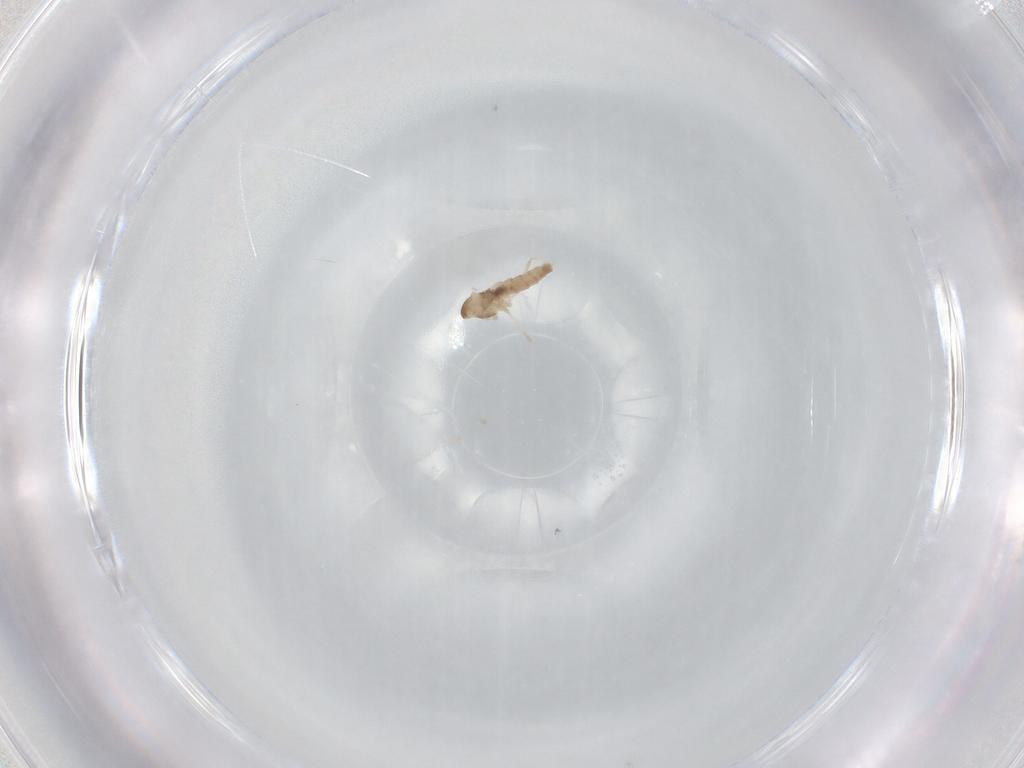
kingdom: Animalia
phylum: Arthropoda
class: Insecta
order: Diptera
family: Cecidomyiidae
